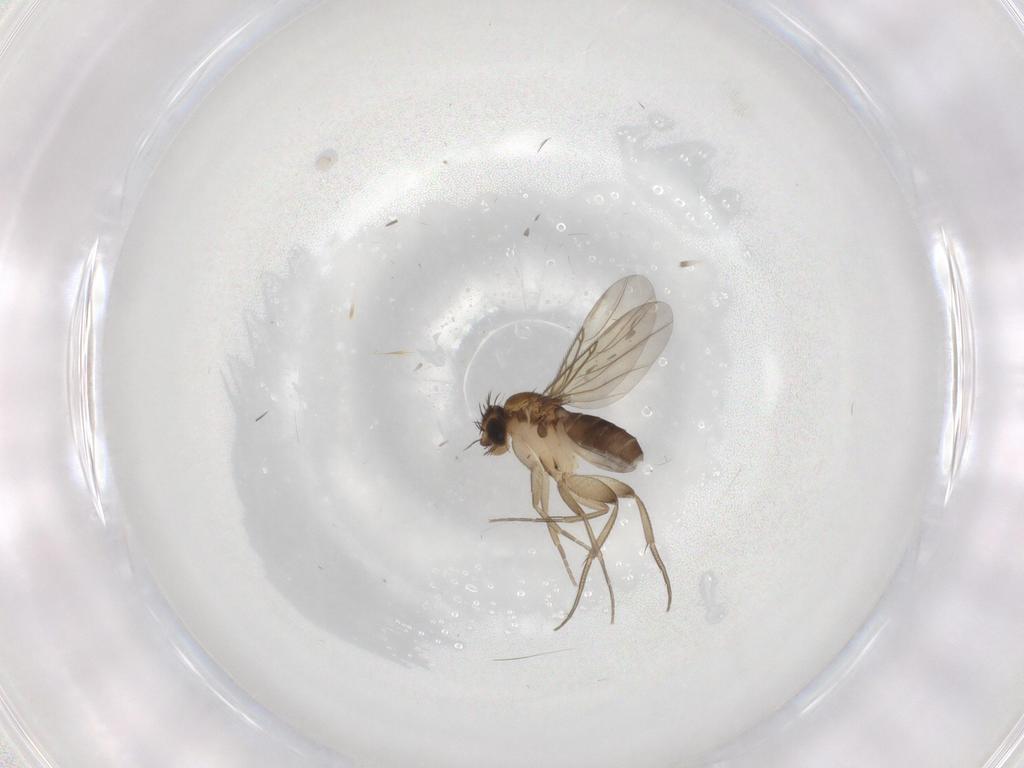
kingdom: Animalia
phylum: Arthropoda
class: Insecta
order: Diptera
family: Phoridae
